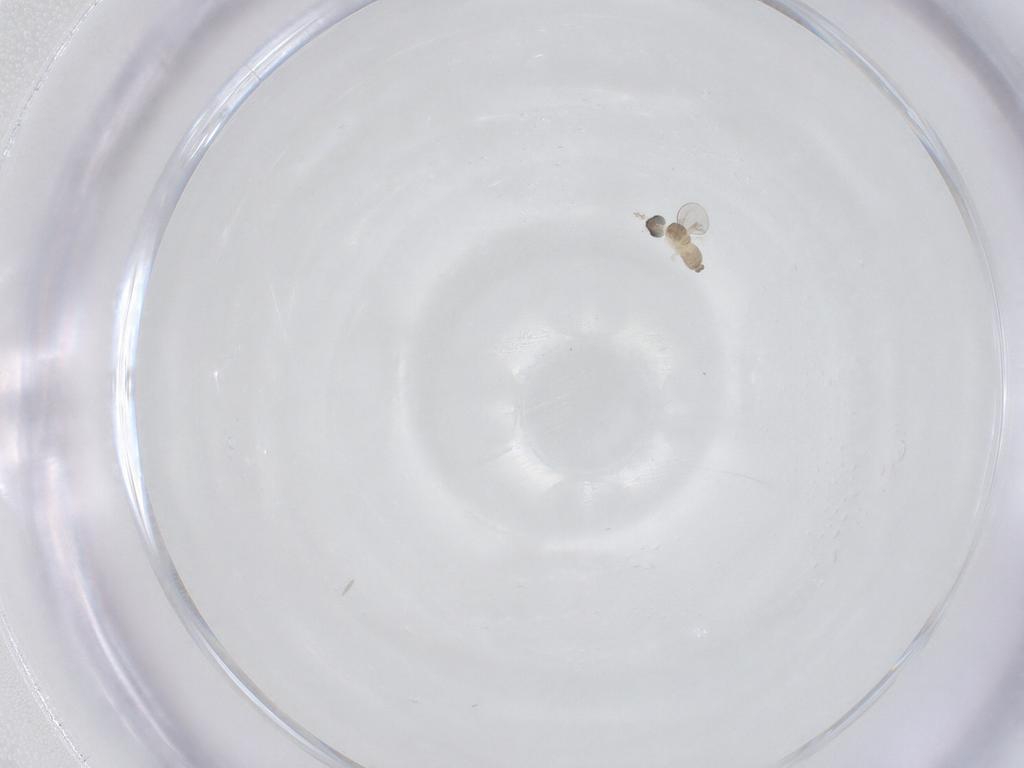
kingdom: Animalia
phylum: Arthropoda
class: Insecta
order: Diptera
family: Cecidomyiidae
